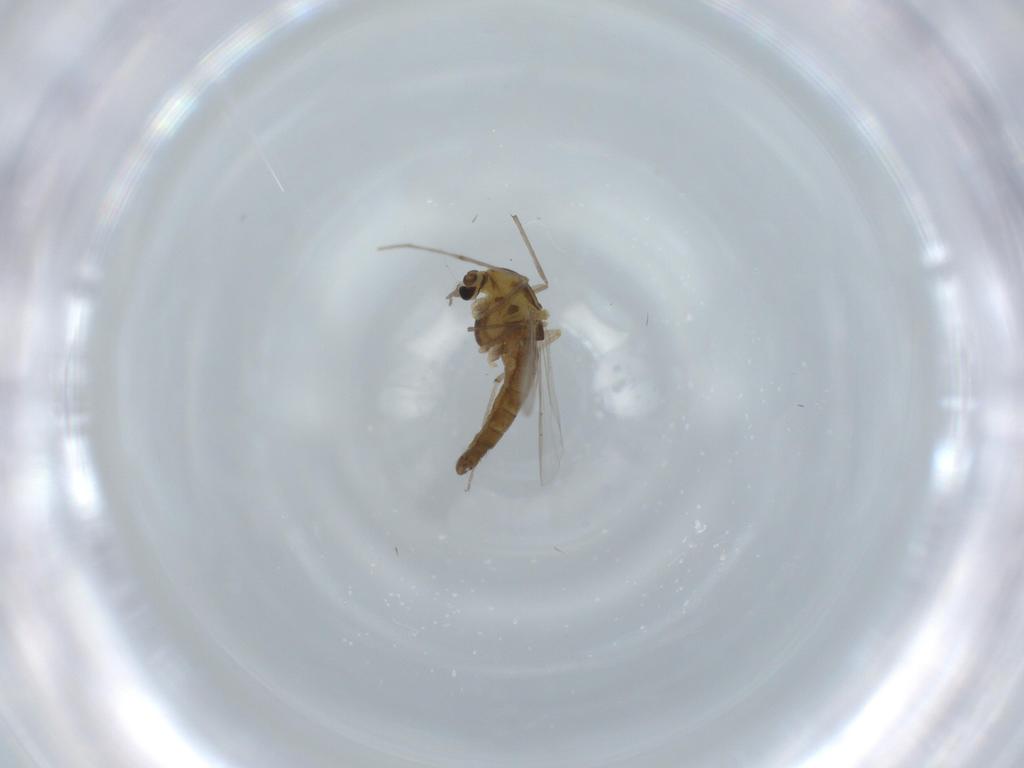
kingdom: Animalia
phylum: Arthropoda
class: Insecta
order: Diptera
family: Chironomidae
